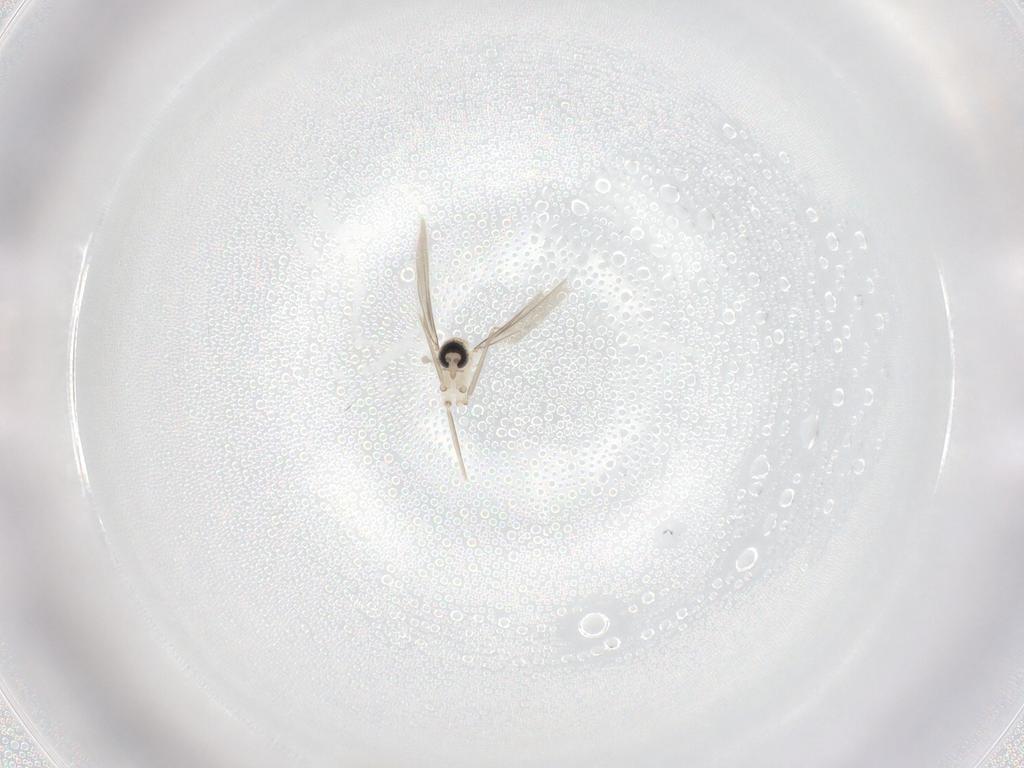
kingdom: Animalia
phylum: Arthropoda
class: Insecta
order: Diptera
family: Cecidomyiidae
